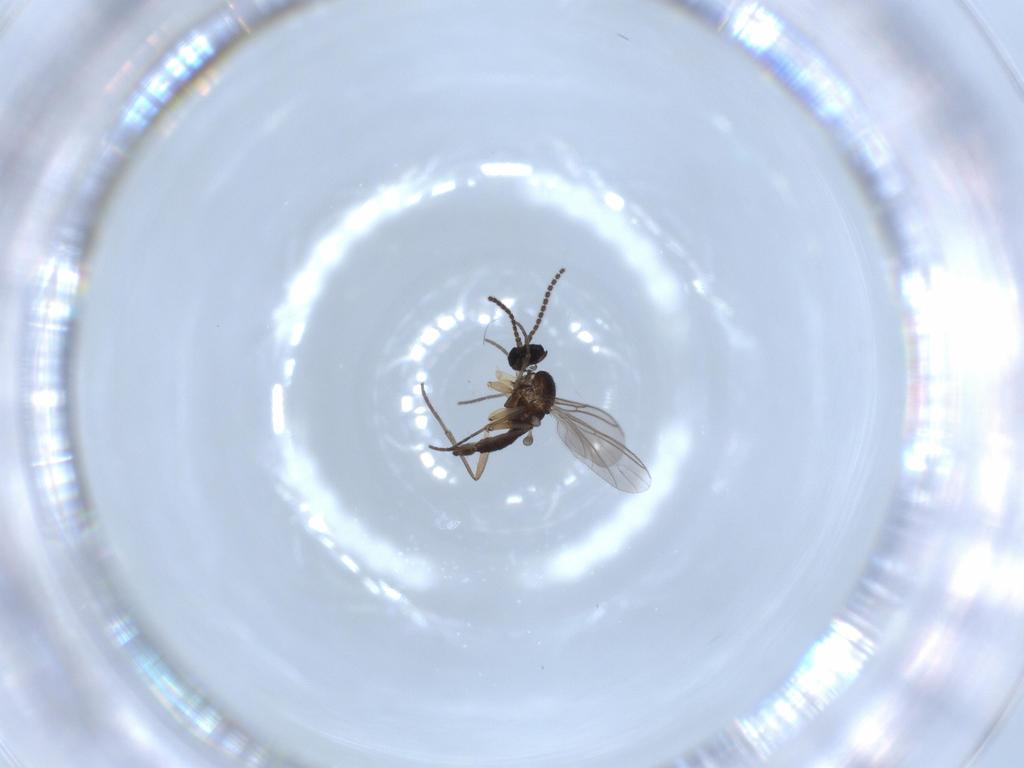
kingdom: Animalia
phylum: Arthropoda
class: Insecta
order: Diptera
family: Sciaridae
